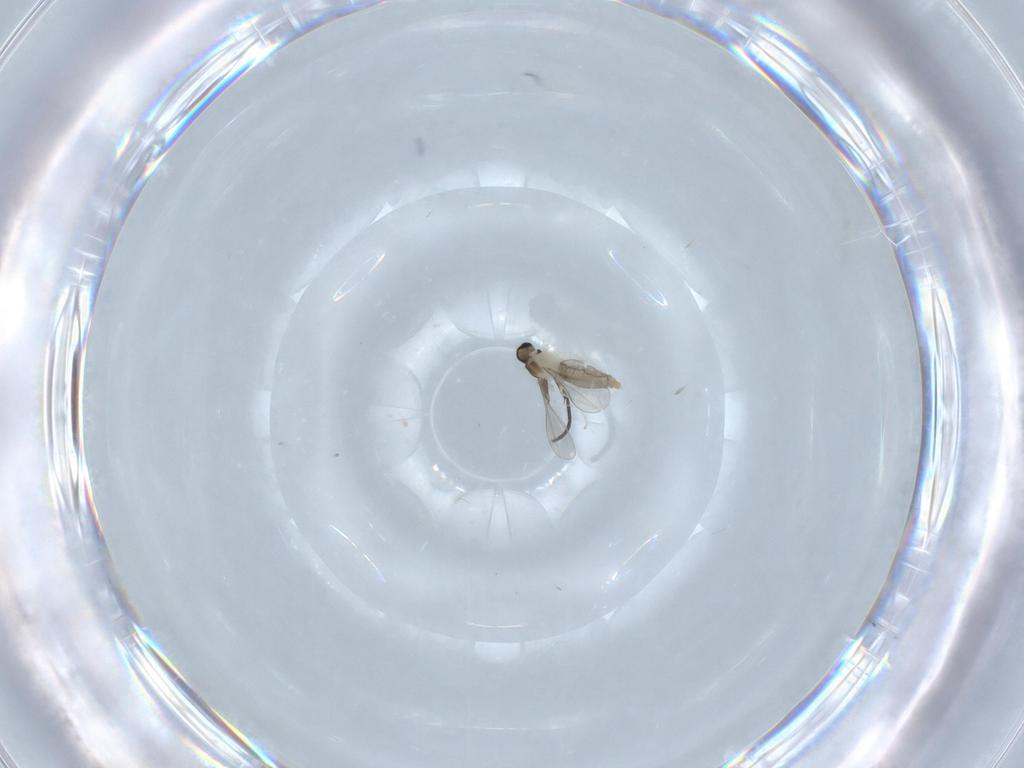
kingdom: Animalia
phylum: Arthropoda
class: Insecta
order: Diptera
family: Cecidomyiidae
